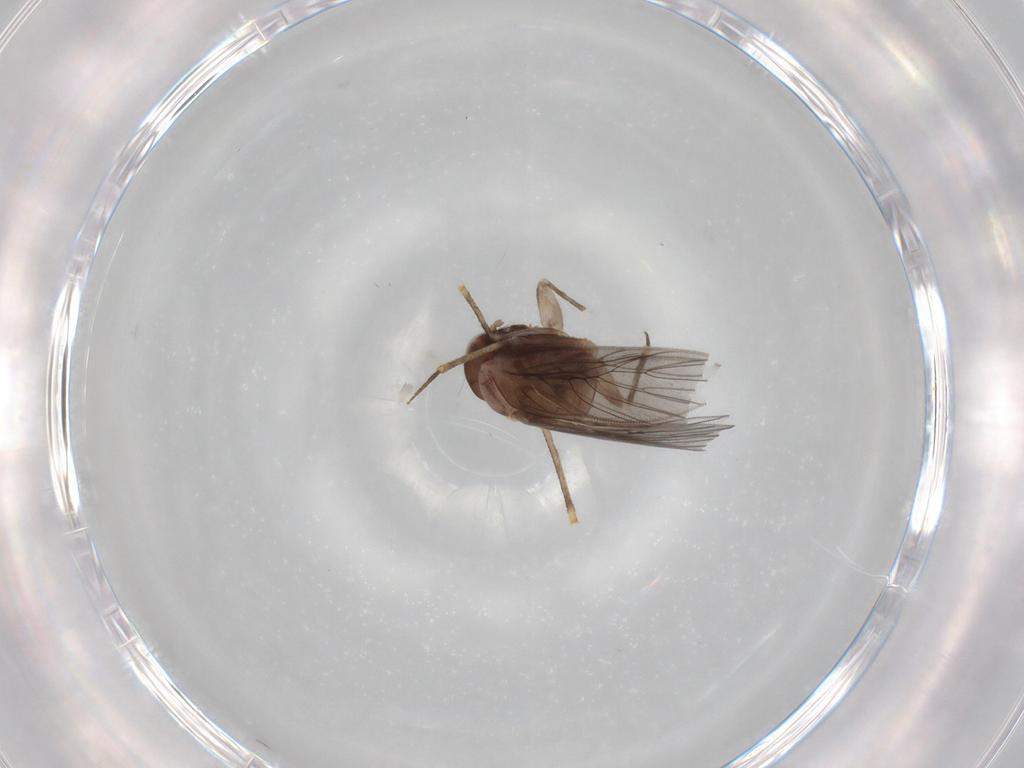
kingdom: Animalia
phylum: Arthropoda
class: Insecta
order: Psocodea
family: Lepidopsocidae
